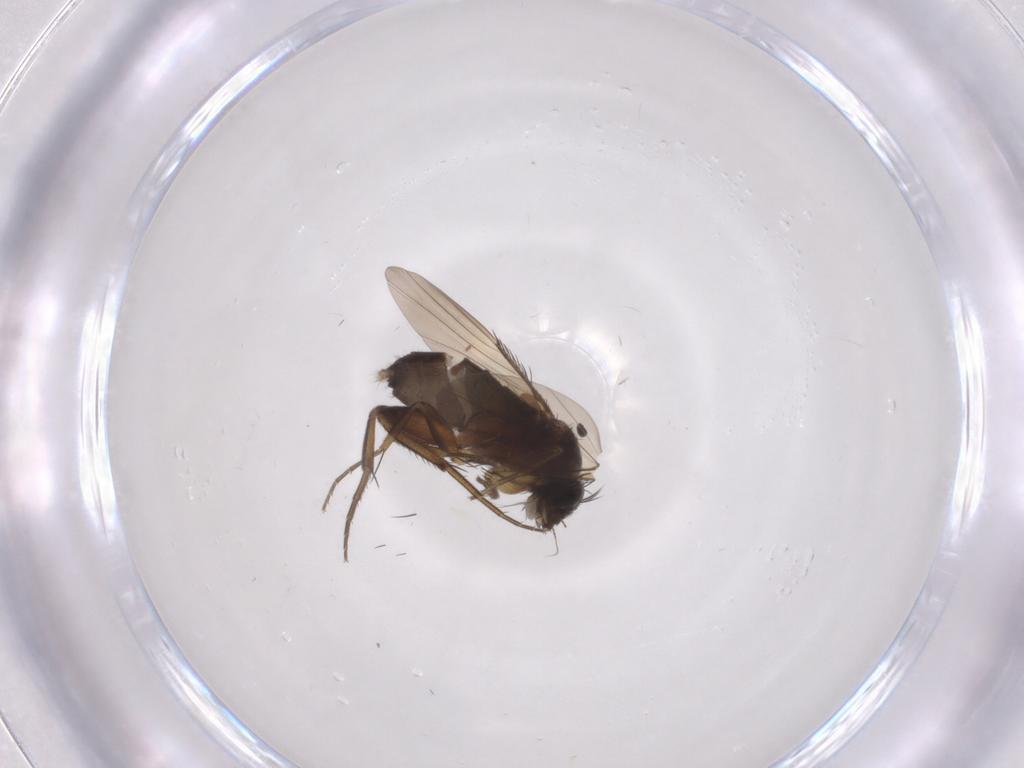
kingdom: Animalia
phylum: Arthropoda
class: Insecta
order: Diptera
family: Phoridae
